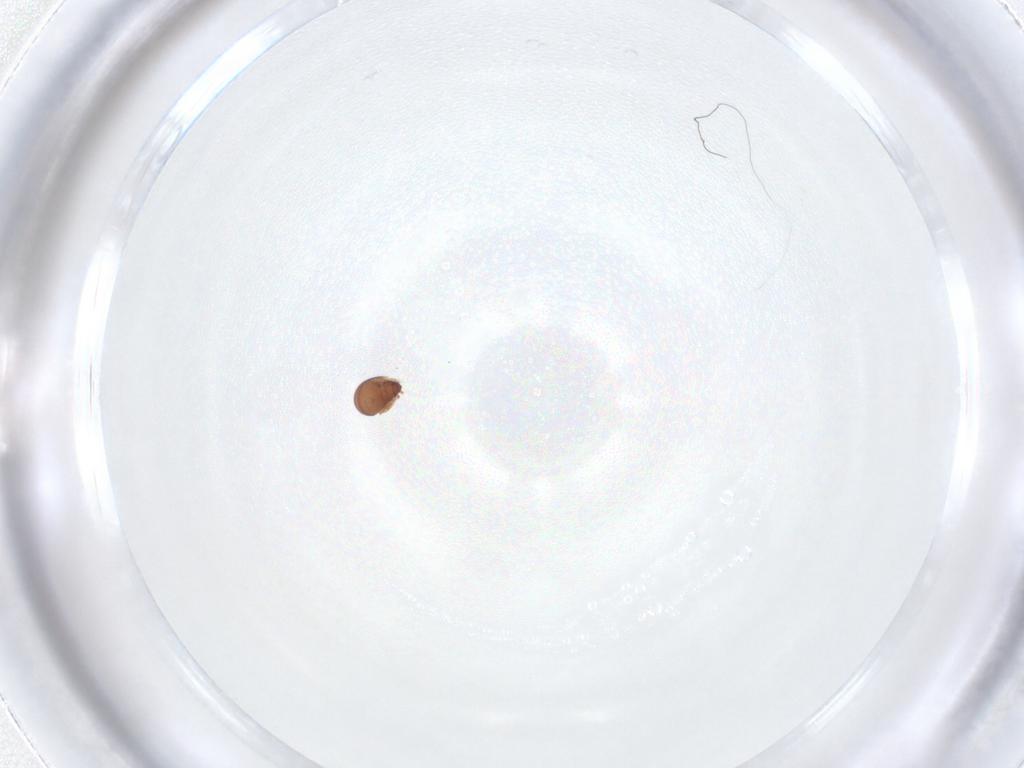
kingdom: Animalia
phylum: Arthropoda
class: Arachnida
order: Sarcoptiformes
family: Tegoribatidae
